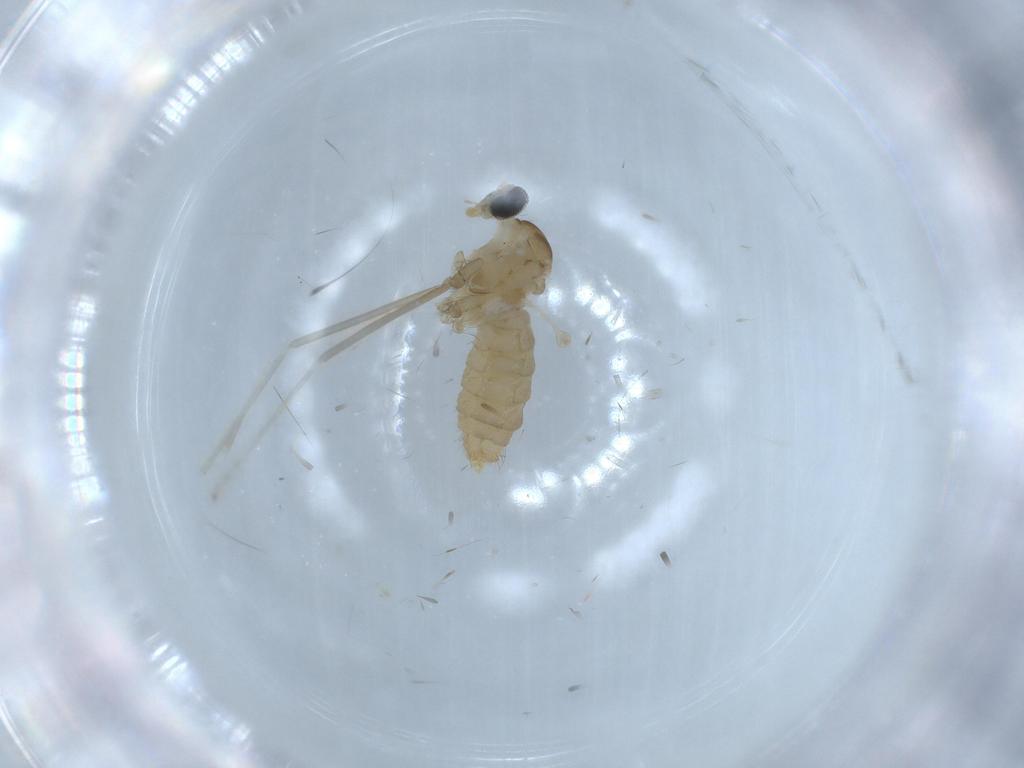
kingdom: Animalia
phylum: Arthropoda
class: Insecta
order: Diptera
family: Cecidomyiidae
